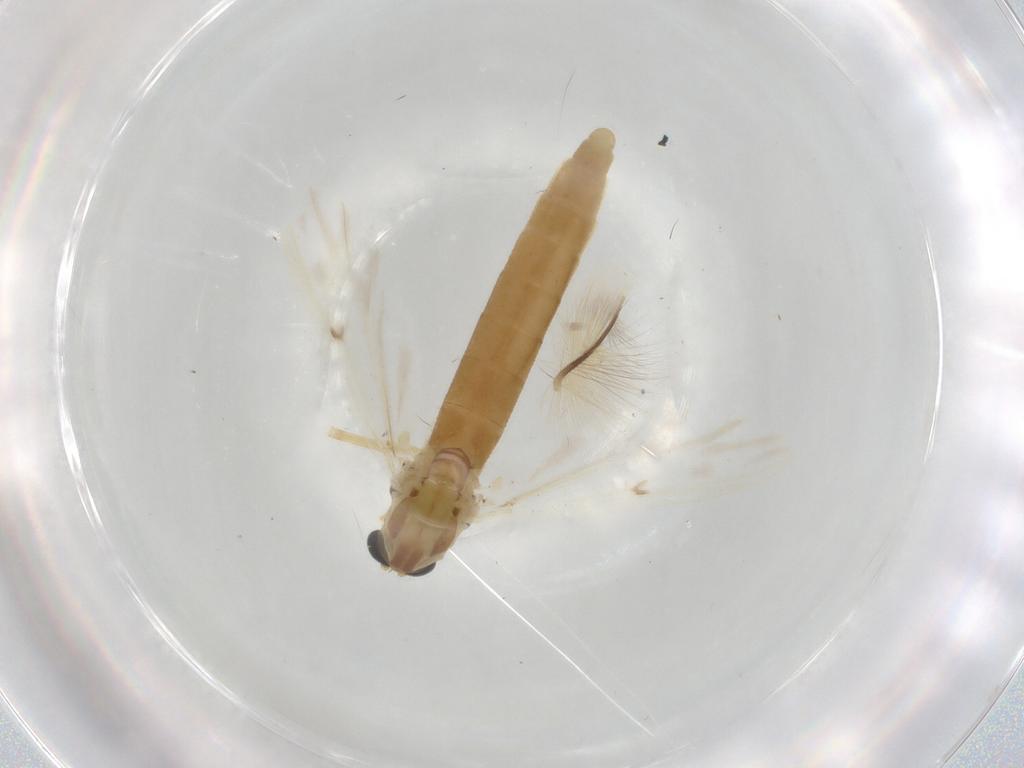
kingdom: Animalia
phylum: Arthropoda
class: Insecta
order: Diptera
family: Chironomidae
